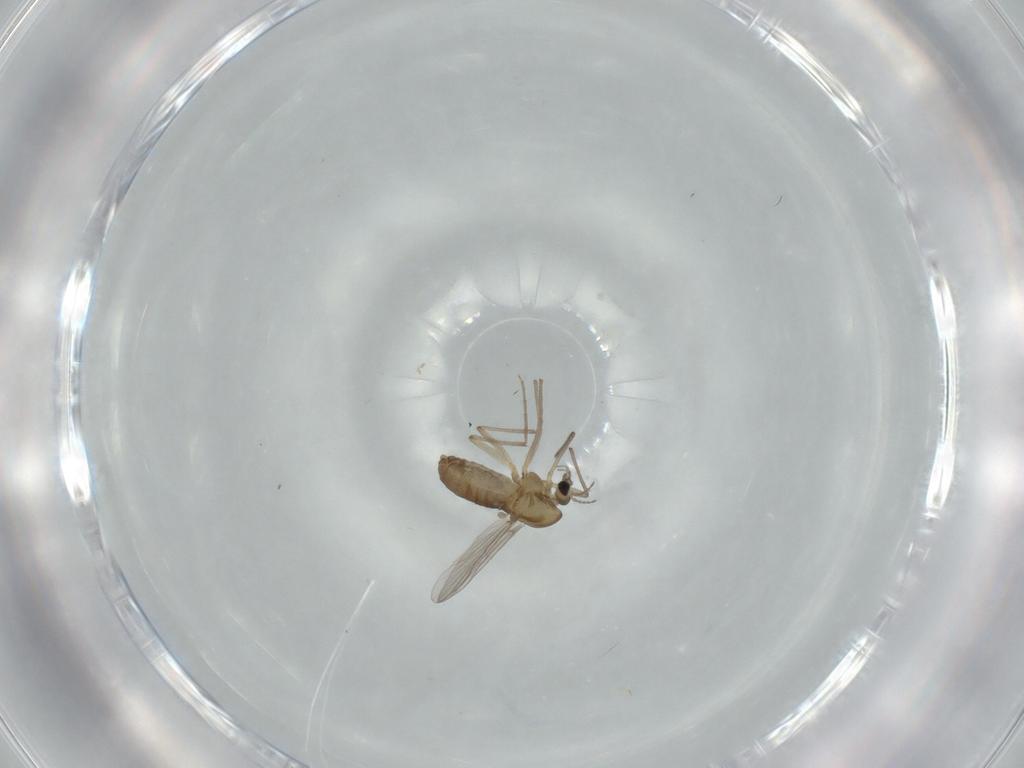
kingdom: Animalia
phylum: Arthropoda
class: Insecta
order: Diptera
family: Chironomidae
